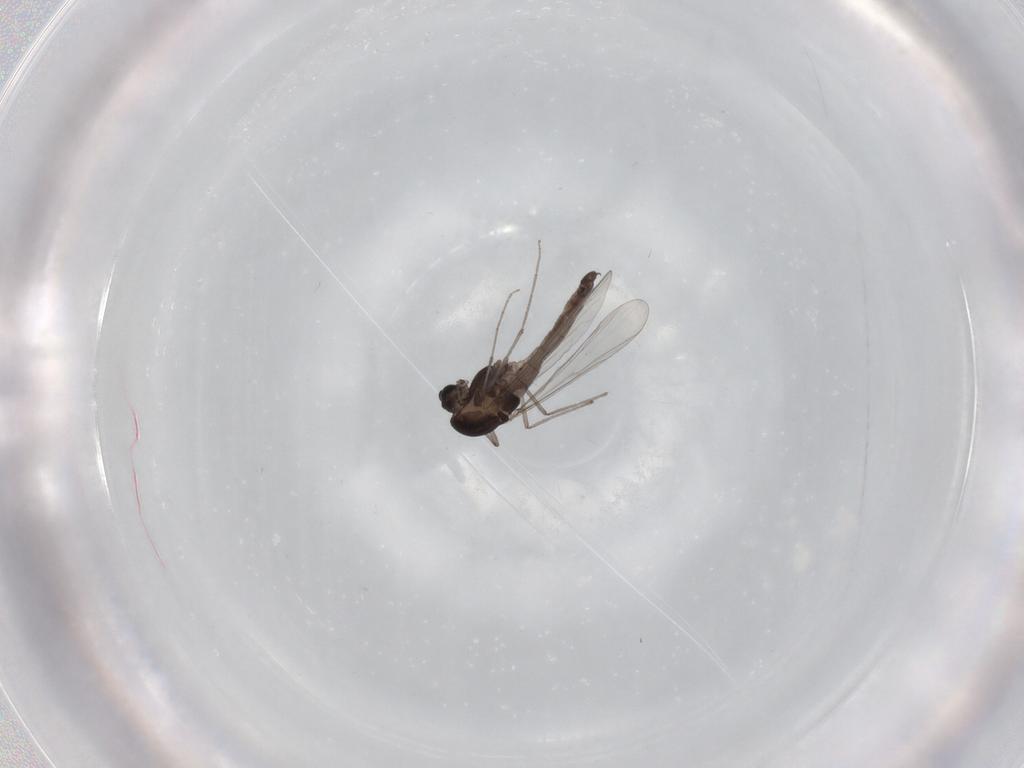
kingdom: Animalia
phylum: Arthropoda
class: Insecta
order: Diptera
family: Chironomidae
